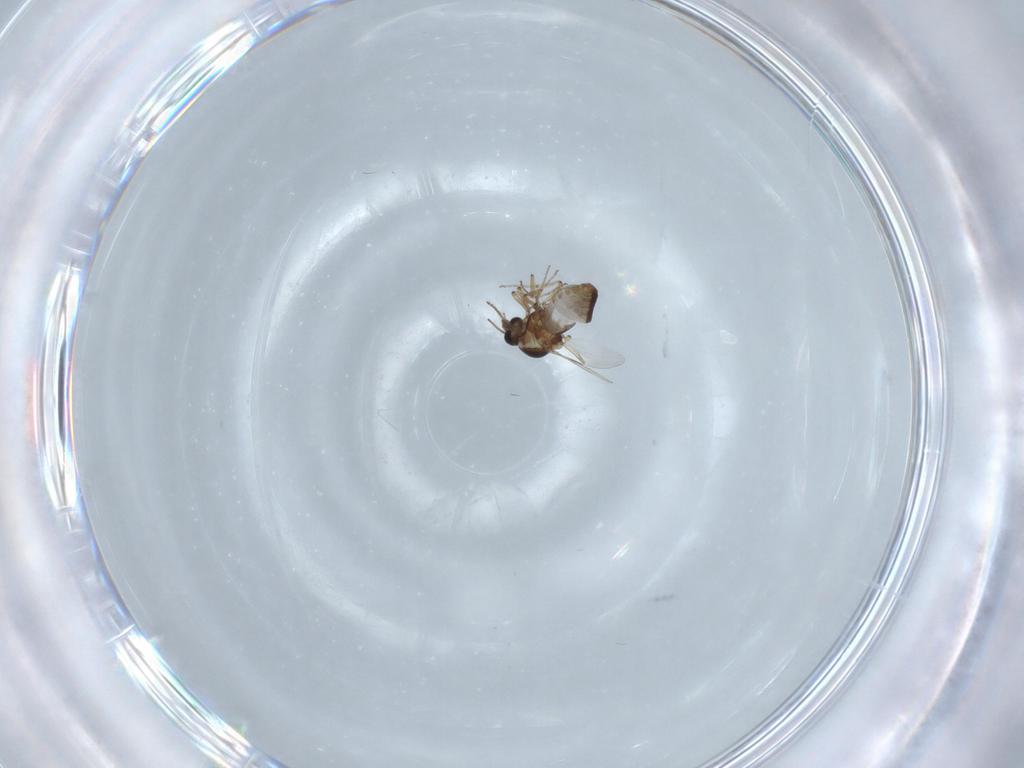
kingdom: Animalia
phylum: Arthropoda
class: Insecta
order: Diptera
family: Ceratopogonidae
